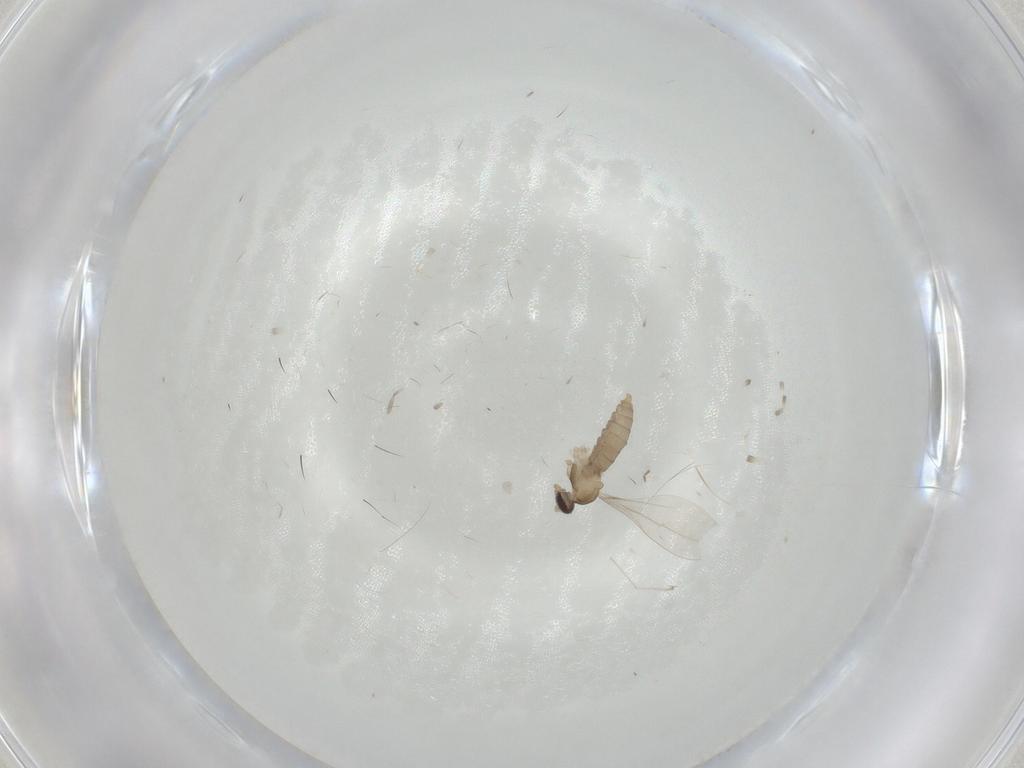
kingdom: Animalia
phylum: Arthropoda
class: Insecta
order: Diptera
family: Cecidomyiidae
